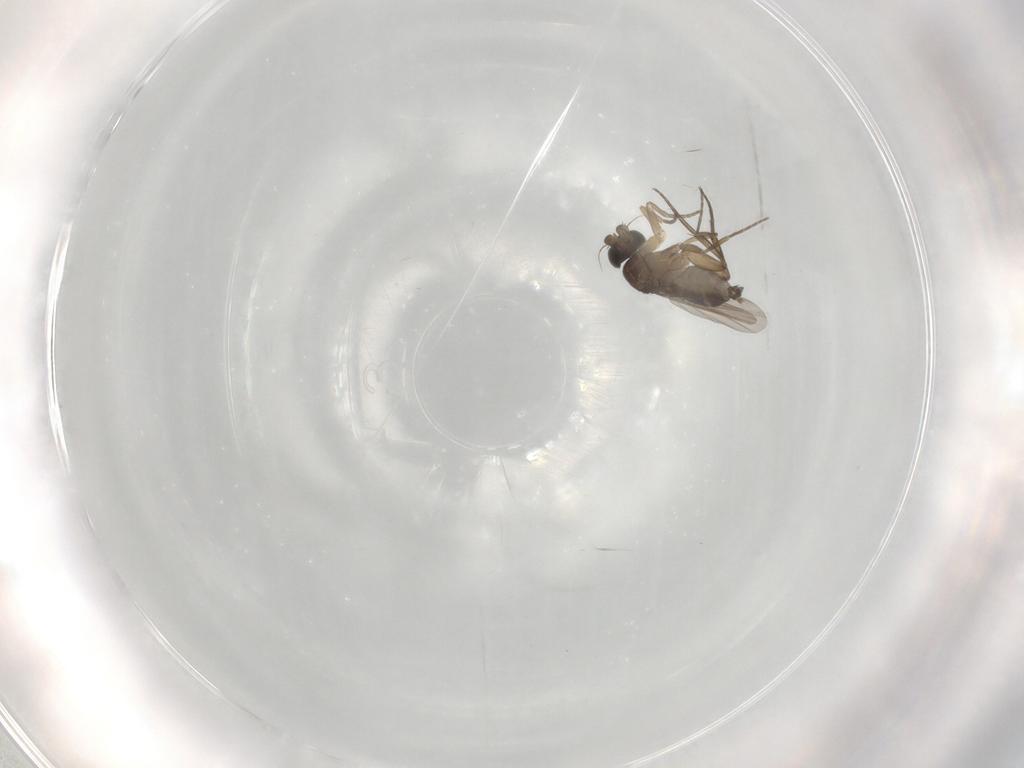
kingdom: Animalia
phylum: Arthropoda
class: Insecta
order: Diptera
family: Phoridae
